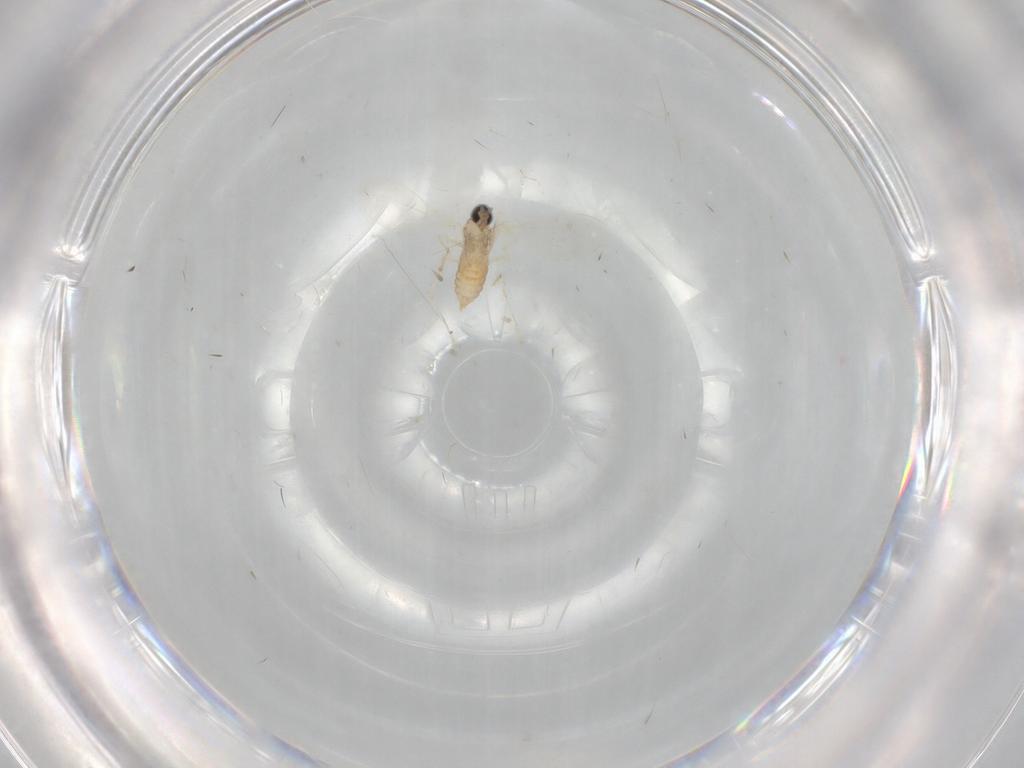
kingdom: Animalia
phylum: Arthropoda
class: Insecta
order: Diptera
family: Cecidomyiidae
